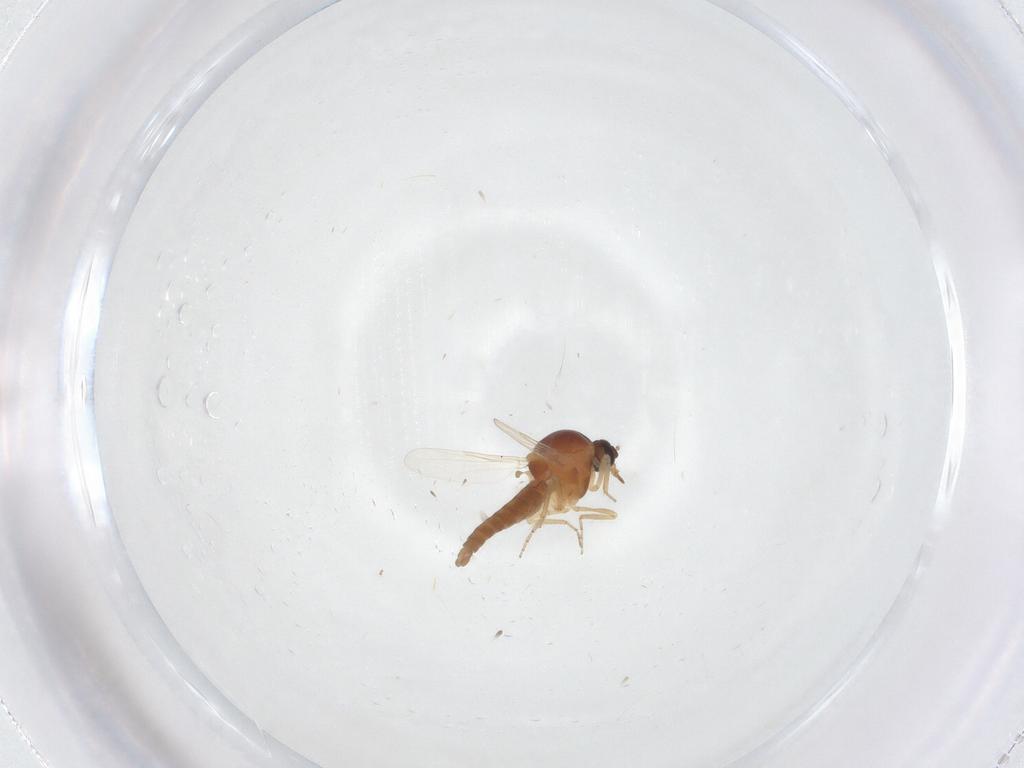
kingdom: Animalia
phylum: Arthropoda
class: Insecta
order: Diptera
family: Ceratopogonidae
